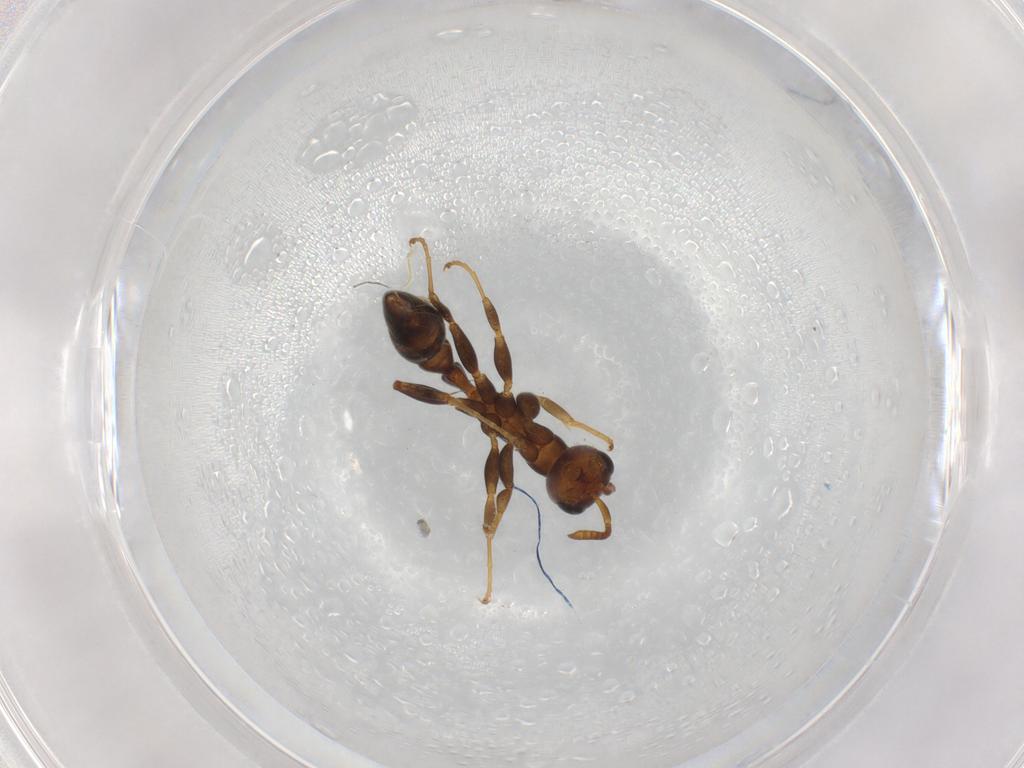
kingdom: Animalia
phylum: Arthropoda
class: Insecta
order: Hymenoptera
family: Formicidae
